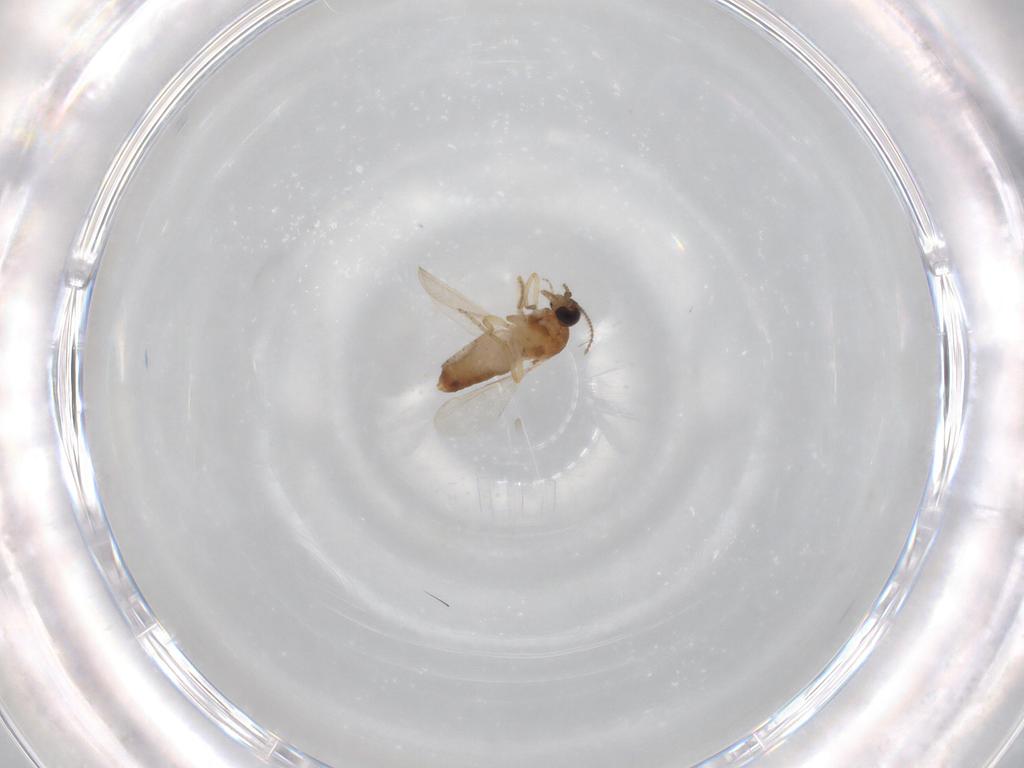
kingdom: Animalia
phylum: Arthropoda
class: Insecta
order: Diptera
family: Ceratopogonidae
